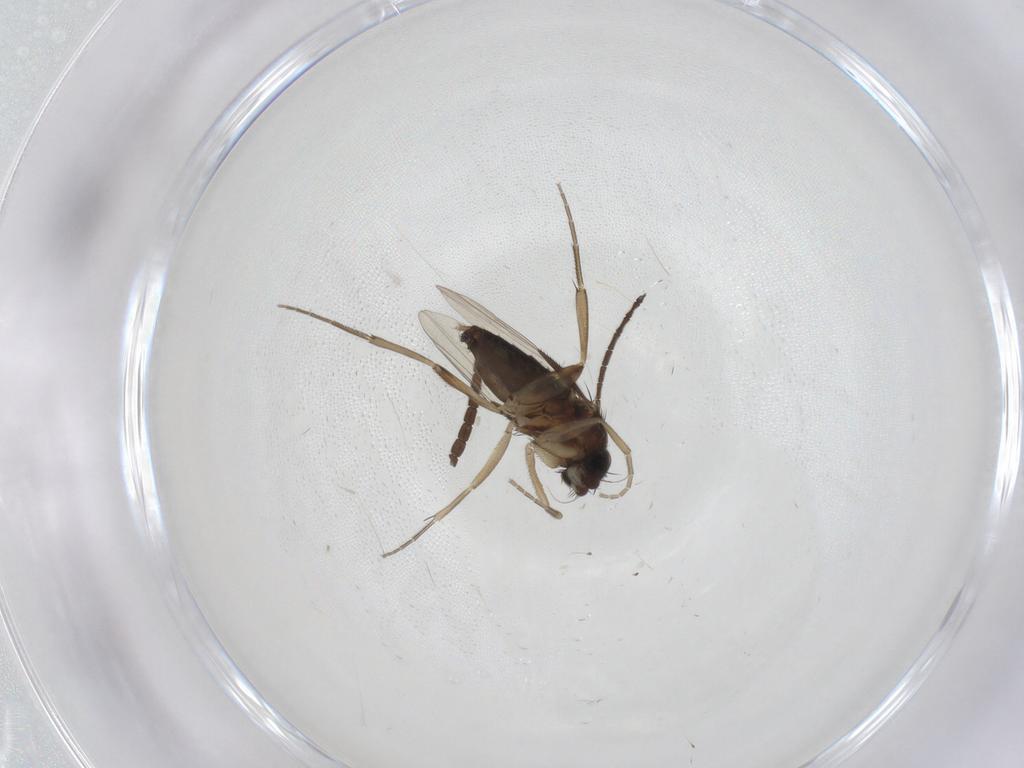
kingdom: Animalia
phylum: Arthropoda
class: Insecta
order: Diptera
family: Phoridae
